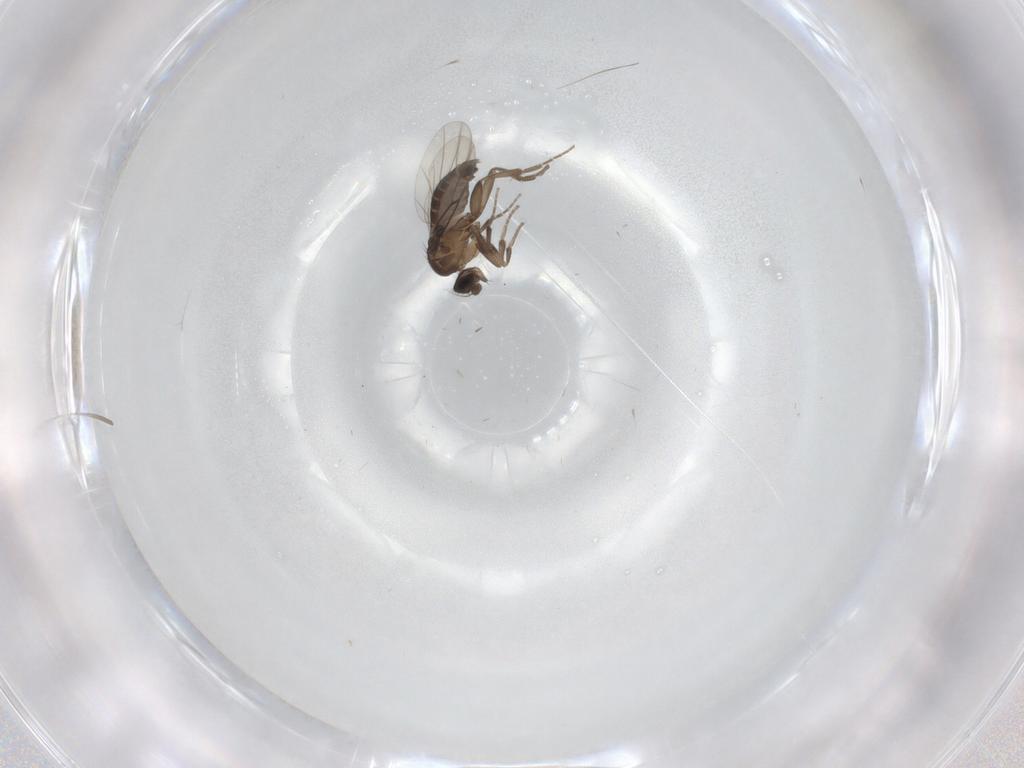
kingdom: Animalia
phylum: Arthropoda
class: Insecta
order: Diptera
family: Phoridae
